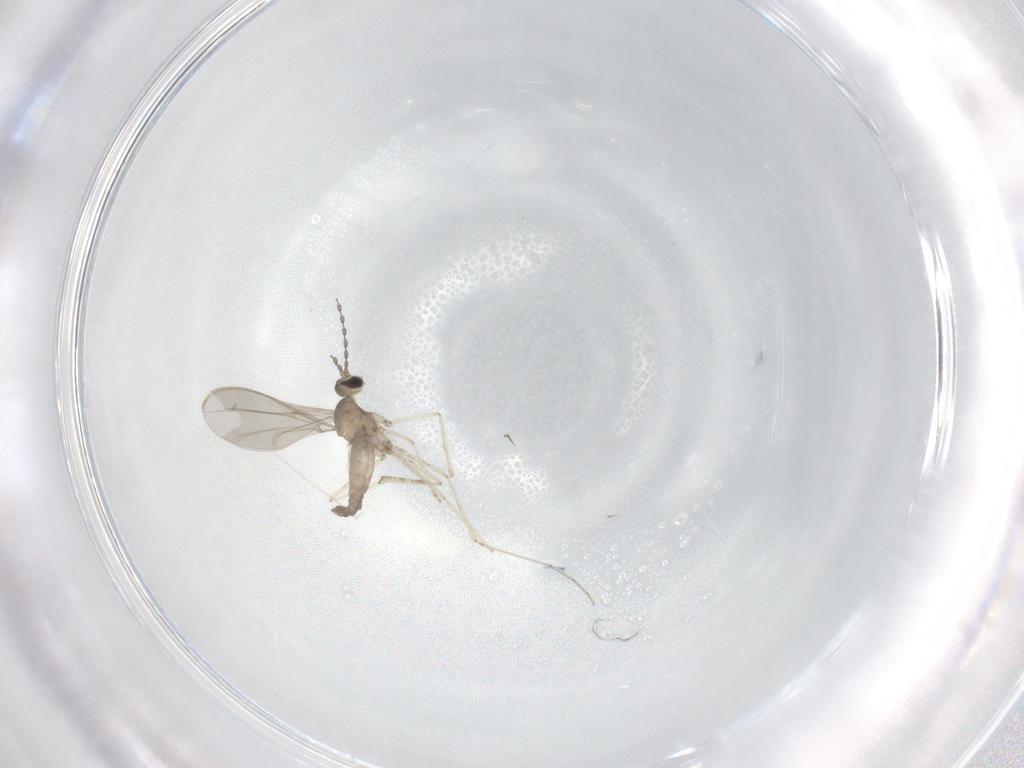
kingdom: Animalia
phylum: Arthropoda
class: Insecta
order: Diptera
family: Cecidomyiidae
